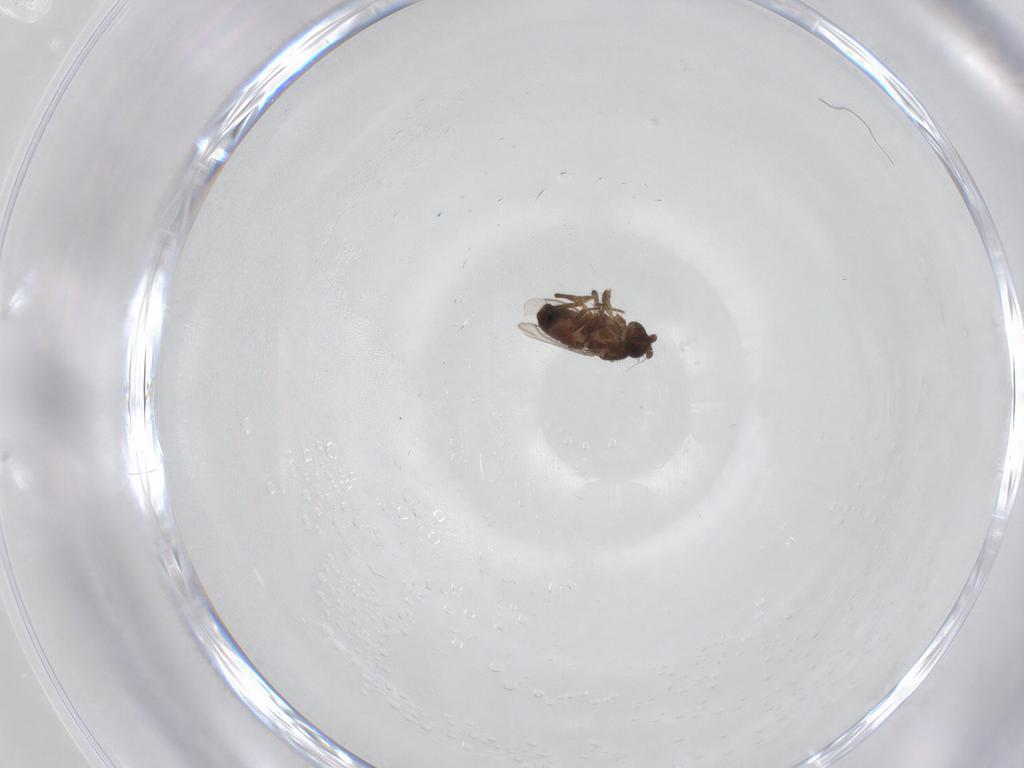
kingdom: Animalia
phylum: Arthropoda
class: Insecta
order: Diptera
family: Sphaeroceridae
